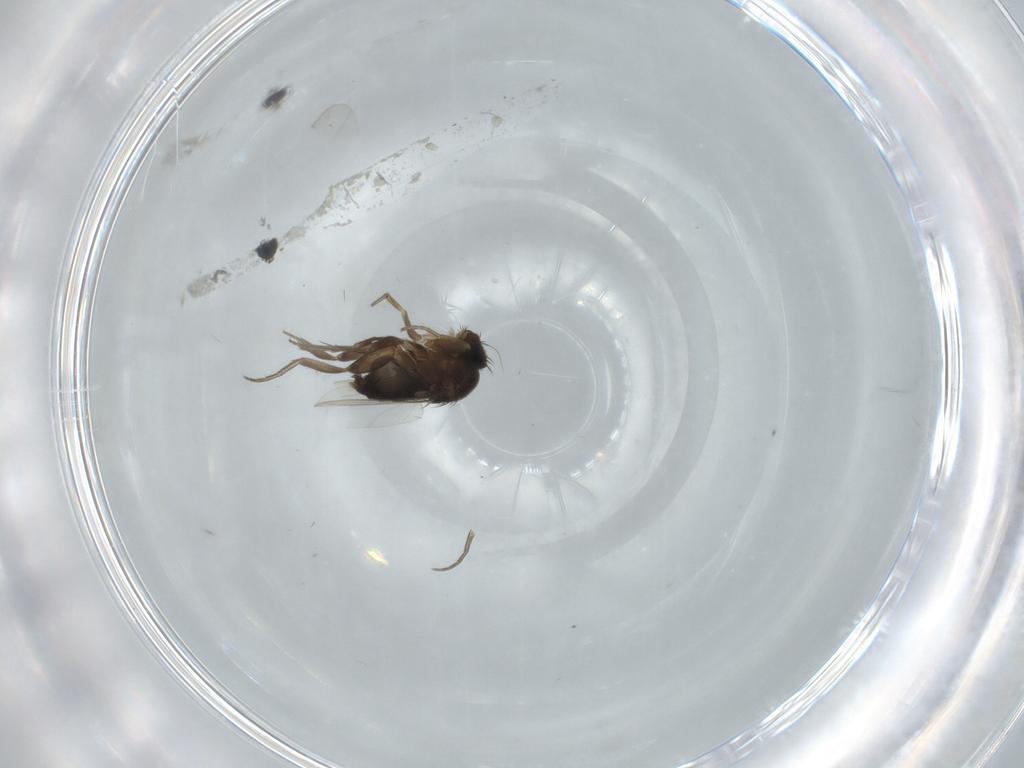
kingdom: Animalia
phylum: Arthropoda
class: Insecta
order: Diptera
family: Phoridae
